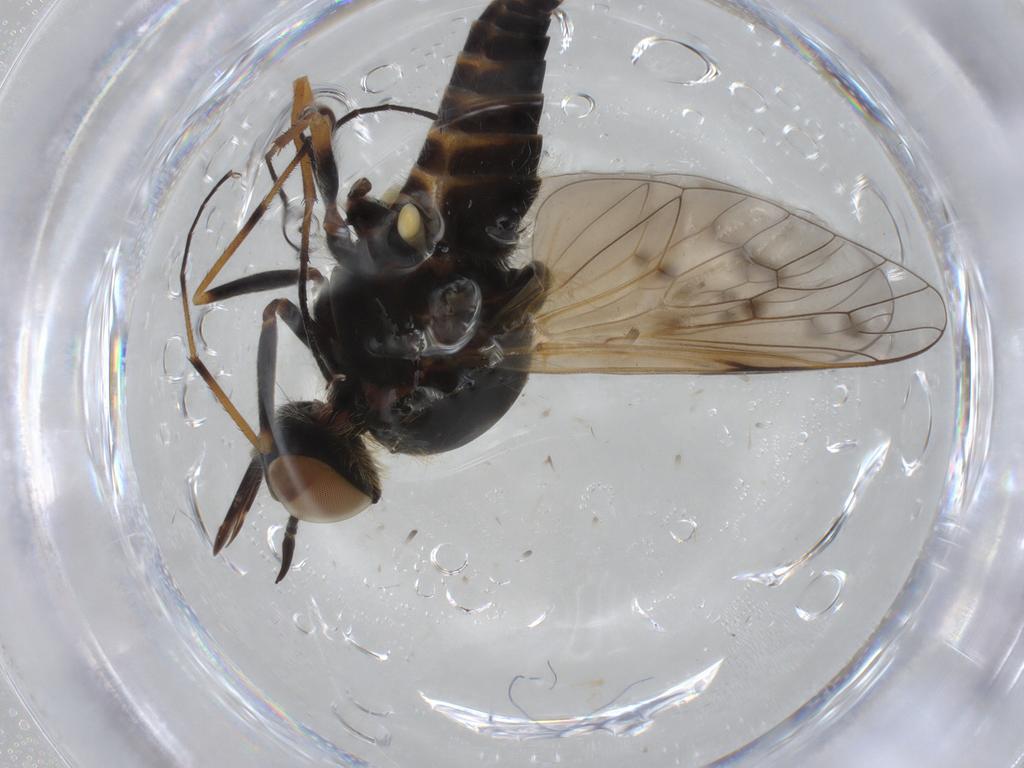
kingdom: Animalia
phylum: Arthropoda
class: Insecta
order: Diptera
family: Bombyliidae
